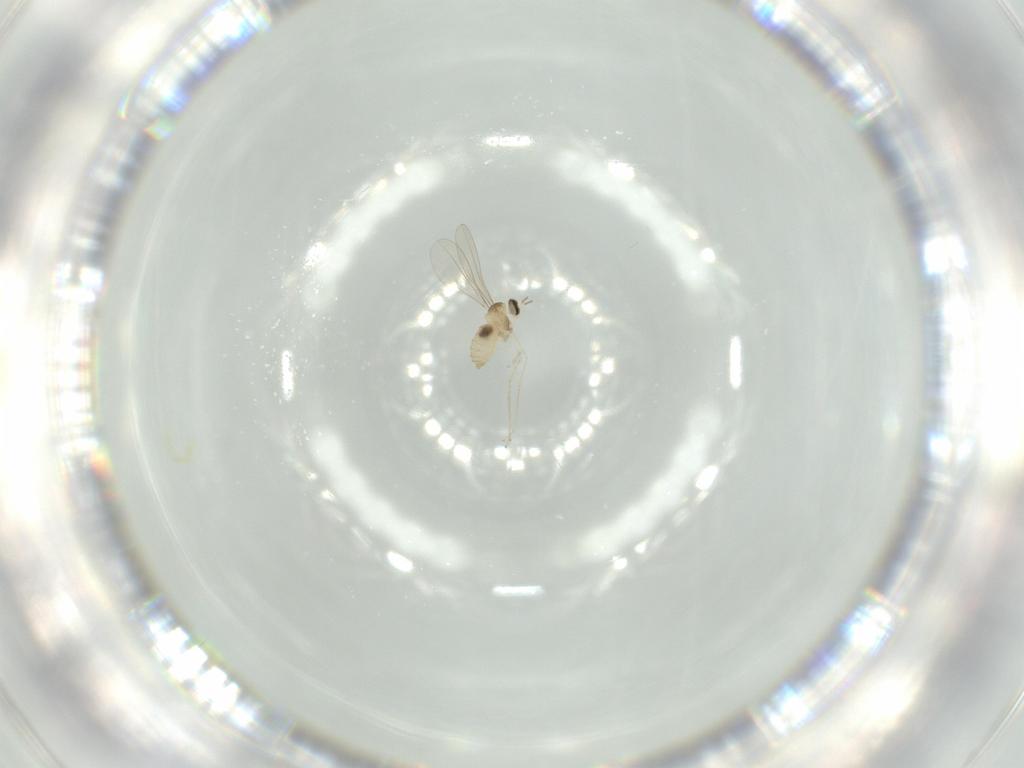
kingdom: Animalia
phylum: Arthropoda
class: Insecta
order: Diptera
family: Cecidomyiidae
